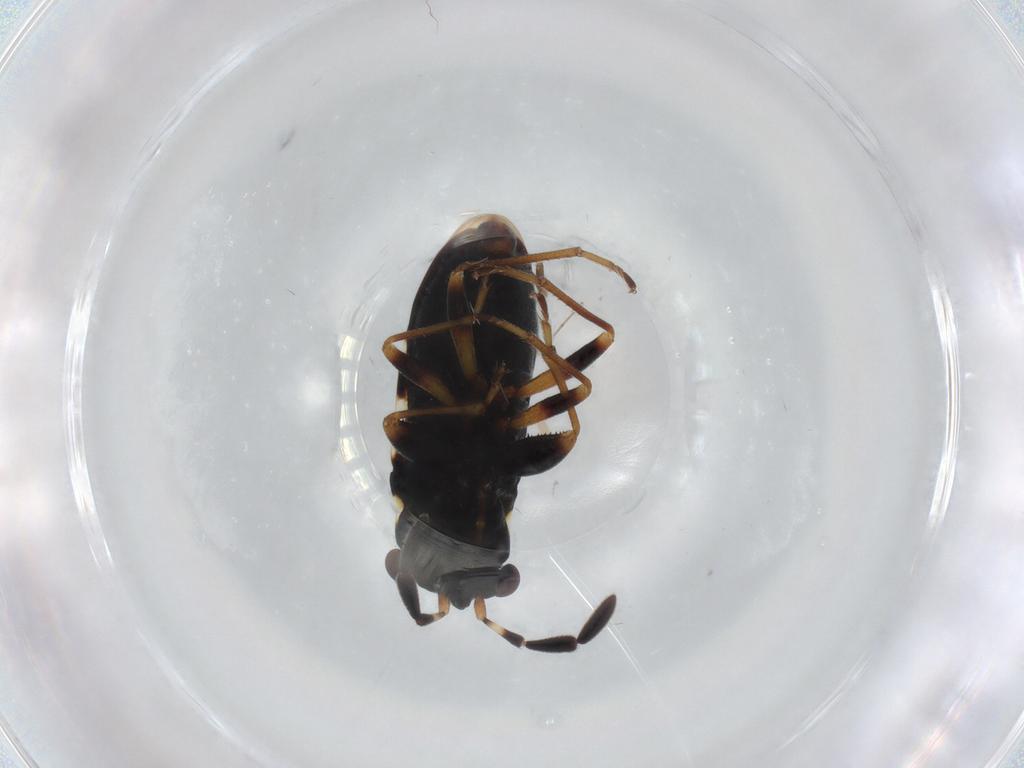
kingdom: Animalia
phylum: Arthropoda
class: Insecta
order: Hemiptera
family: Rhyparochromidae
